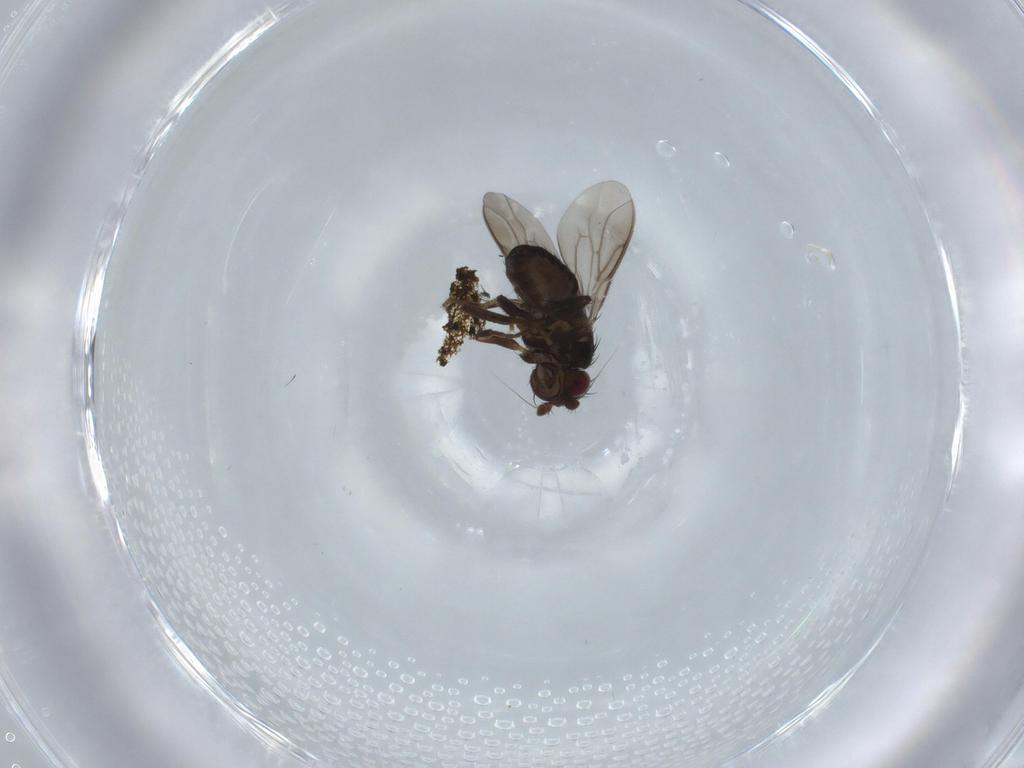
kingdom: Animalia
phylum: Arthropoda
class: Insecta
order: Diptera
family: Sphaeroceridae
